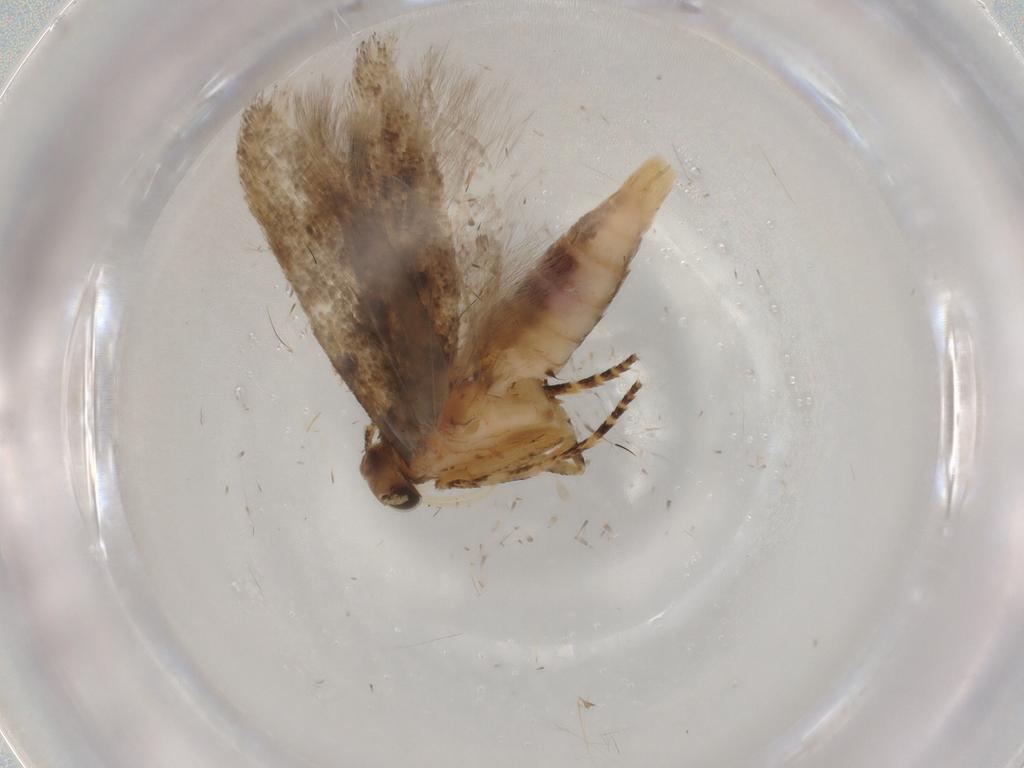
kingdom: Animalia
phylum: Arthropoda
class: Insecta
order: Lepidoptera
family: Gelechiidae
